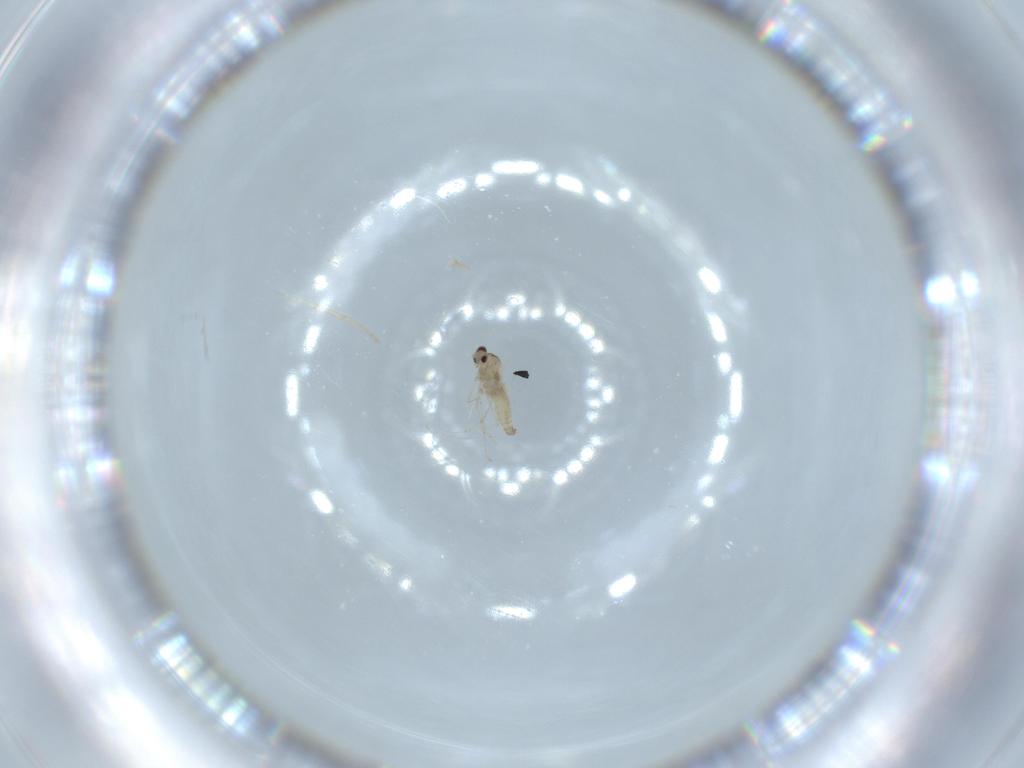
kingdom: Animalia
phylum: Arthropoda
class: Insecta
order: Diptera
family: Cecidomyiidae
